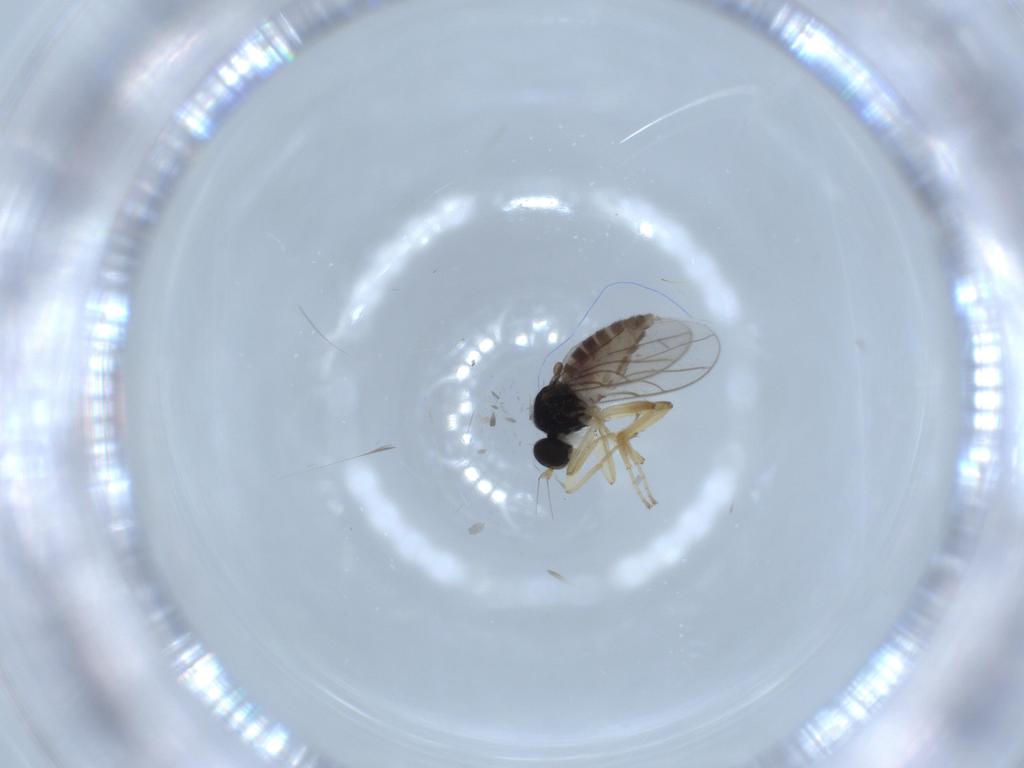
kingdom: Animalia
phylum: Arthropoda
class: Insecta
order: Diptera
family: Hybotidae
